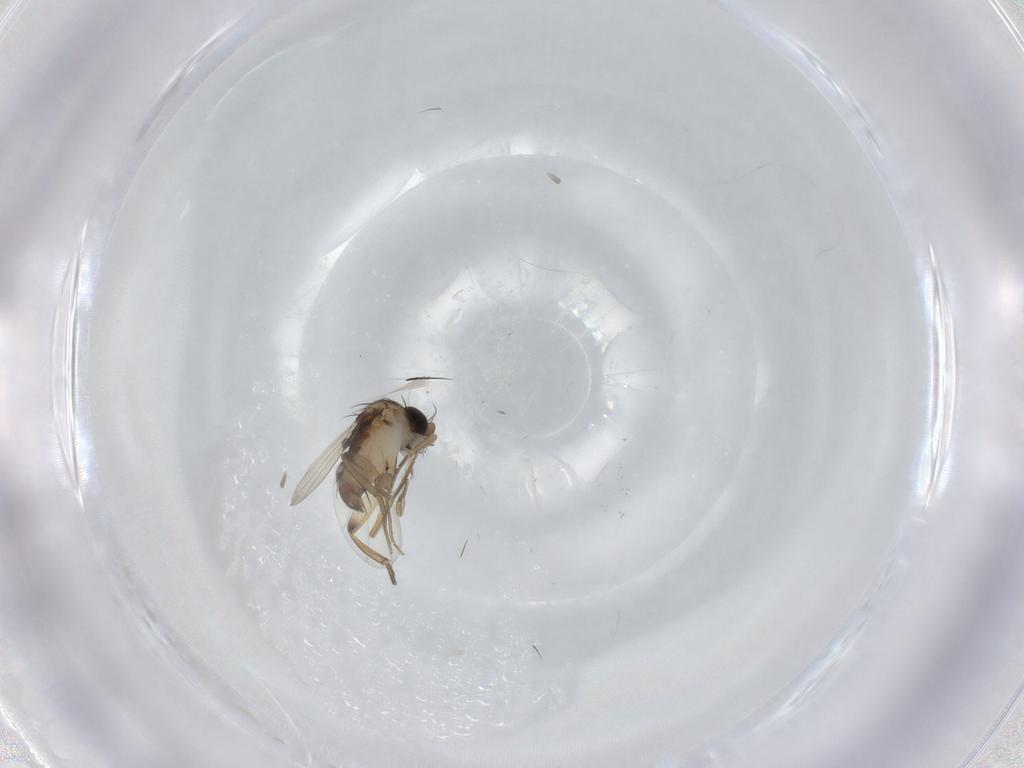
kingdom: Animalia
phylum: Arthropoda
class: Insecta
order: Diptera
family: Phoridae
